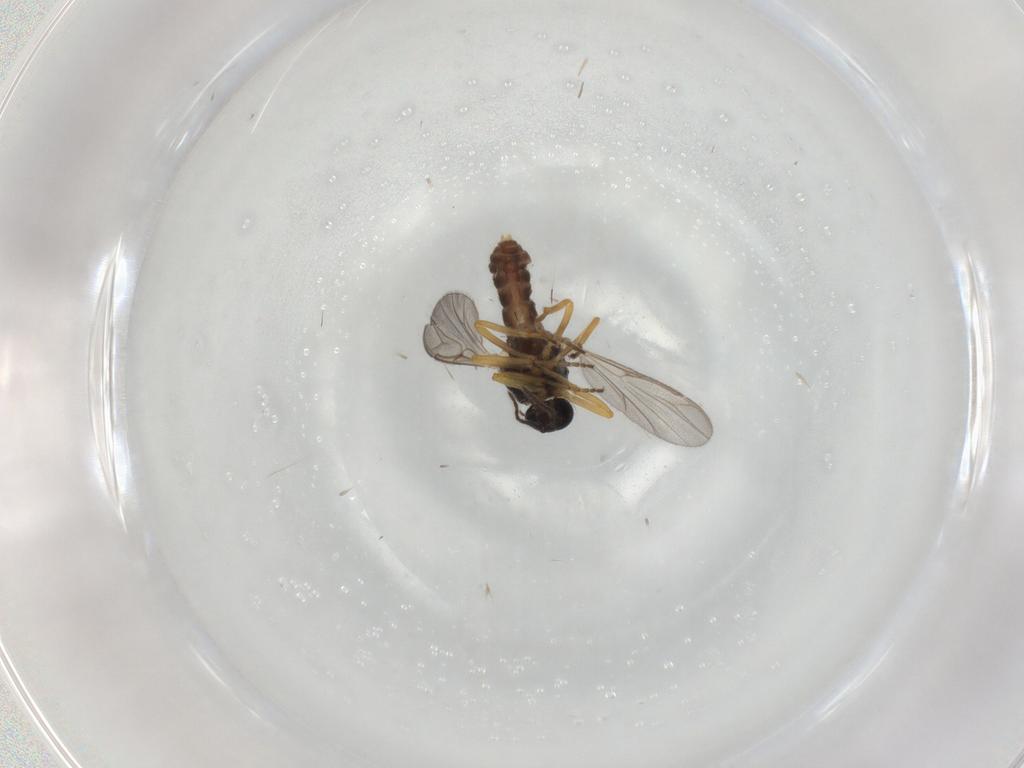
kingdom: Animalia
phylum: Arthropoda
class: Insecta
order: Diptera
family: Ceratopogonidae
